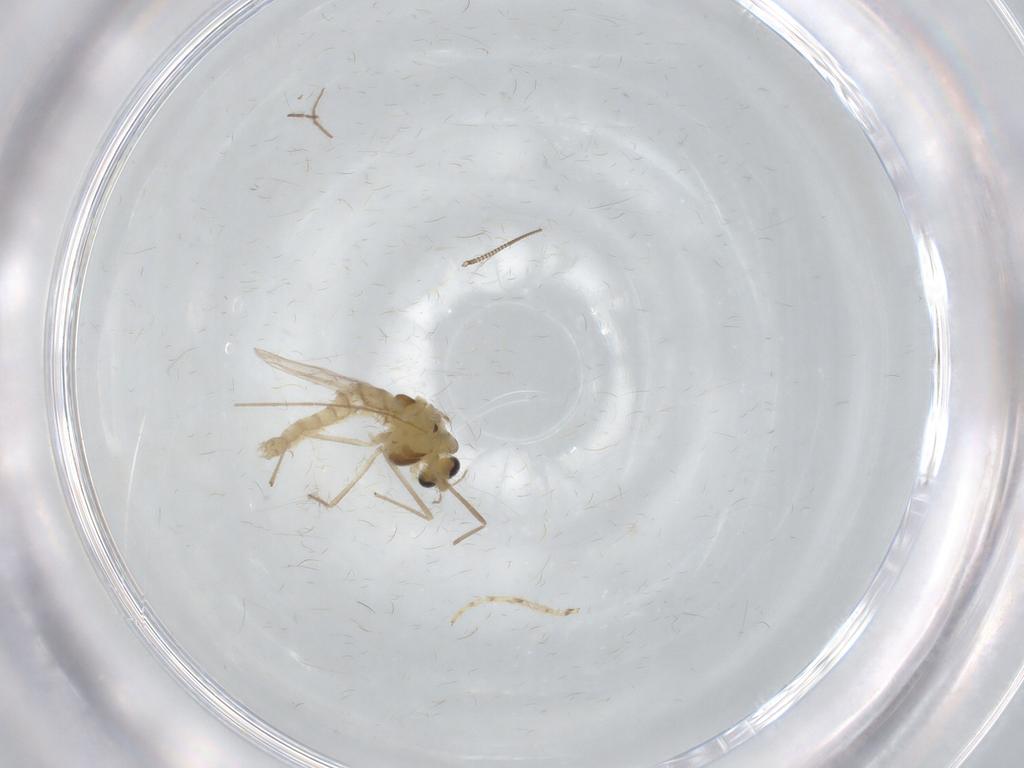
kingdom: Animalia
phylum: Arthropoda
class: Insecta
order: Diptera
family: Chironomidae
